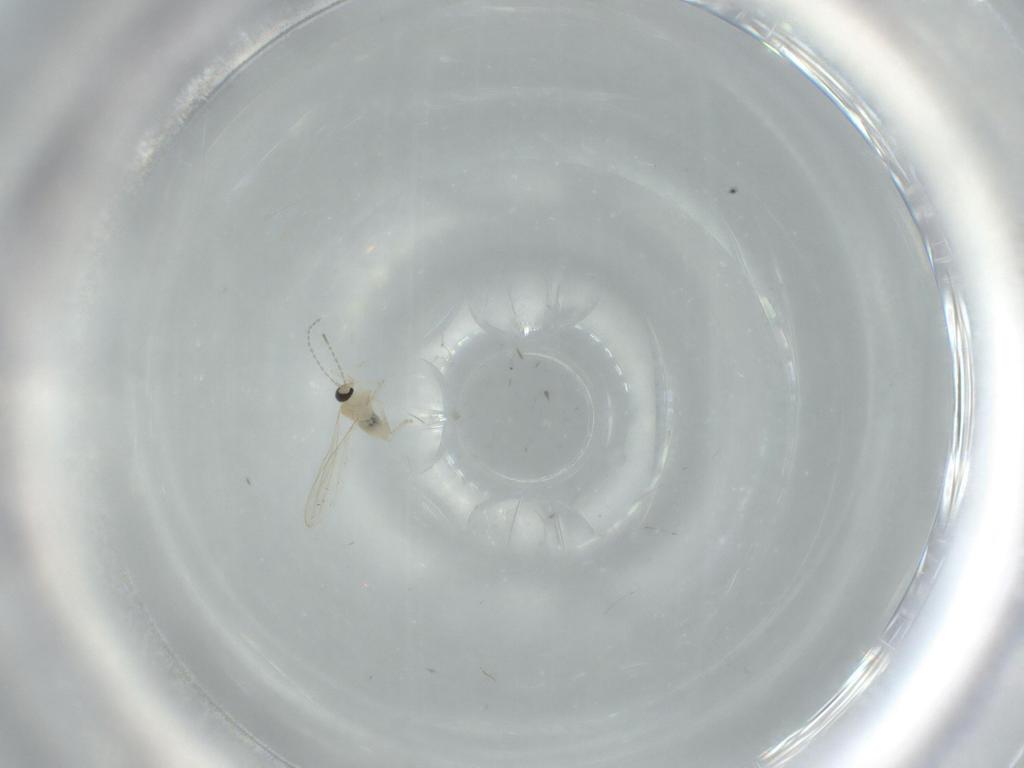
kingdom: Animalia
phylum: Arthropoda
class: Insecta
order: Diptera
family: Cecidomyiidae
